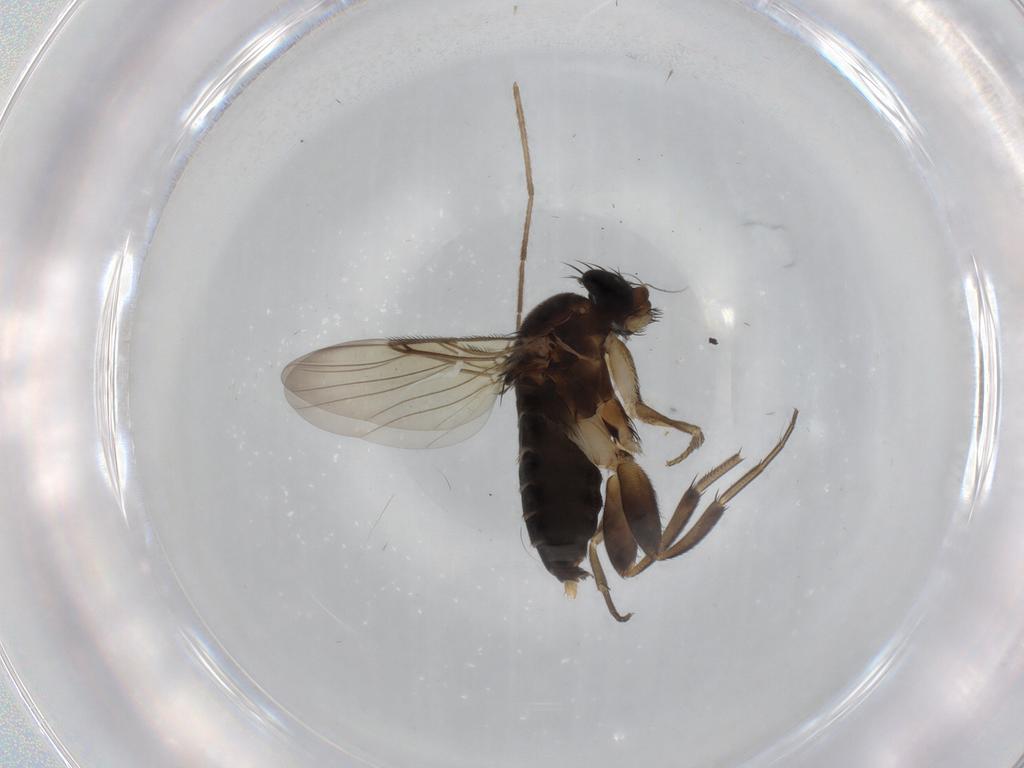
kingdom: Animalia
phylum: Arthropoda
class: Insecta
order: Diptera
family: Phoridae
